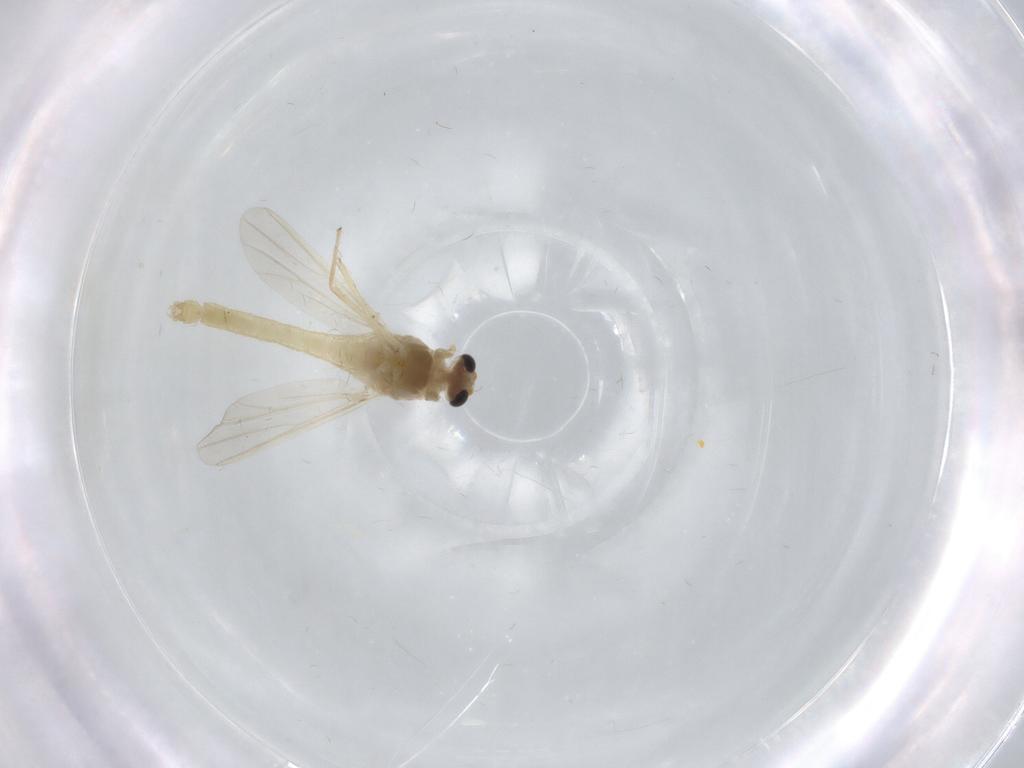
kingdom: Animalia
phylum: Arthropoda
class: Insecta
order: Diptera
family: Chironomidae
